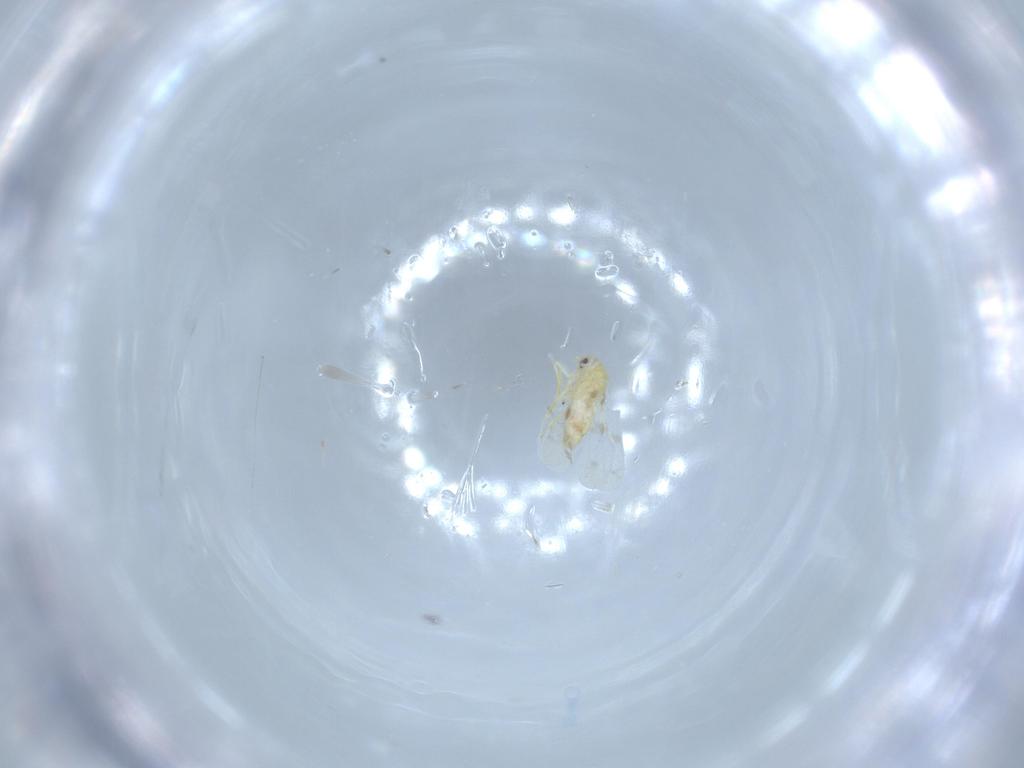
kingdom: Animalia
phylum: Arthropoda
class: Insecta
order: Hemiptera
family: Aleyrodidae
